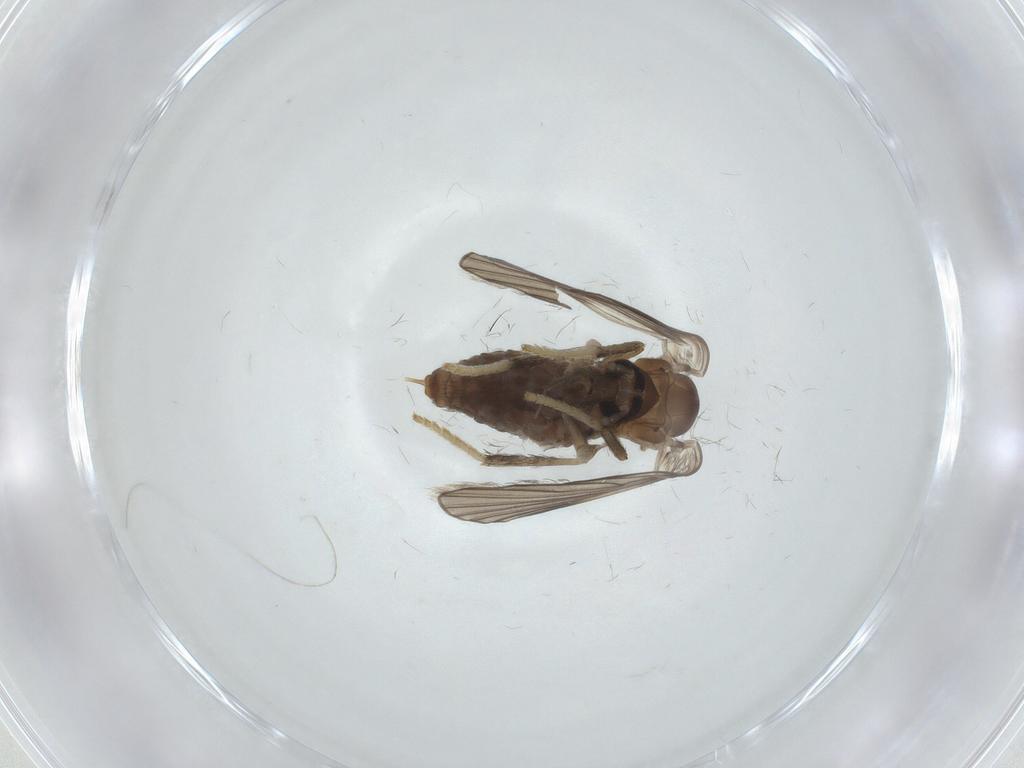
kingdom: Animalia
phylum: Arthropoda
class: Insecta
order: Diptera
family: Psychodidae
